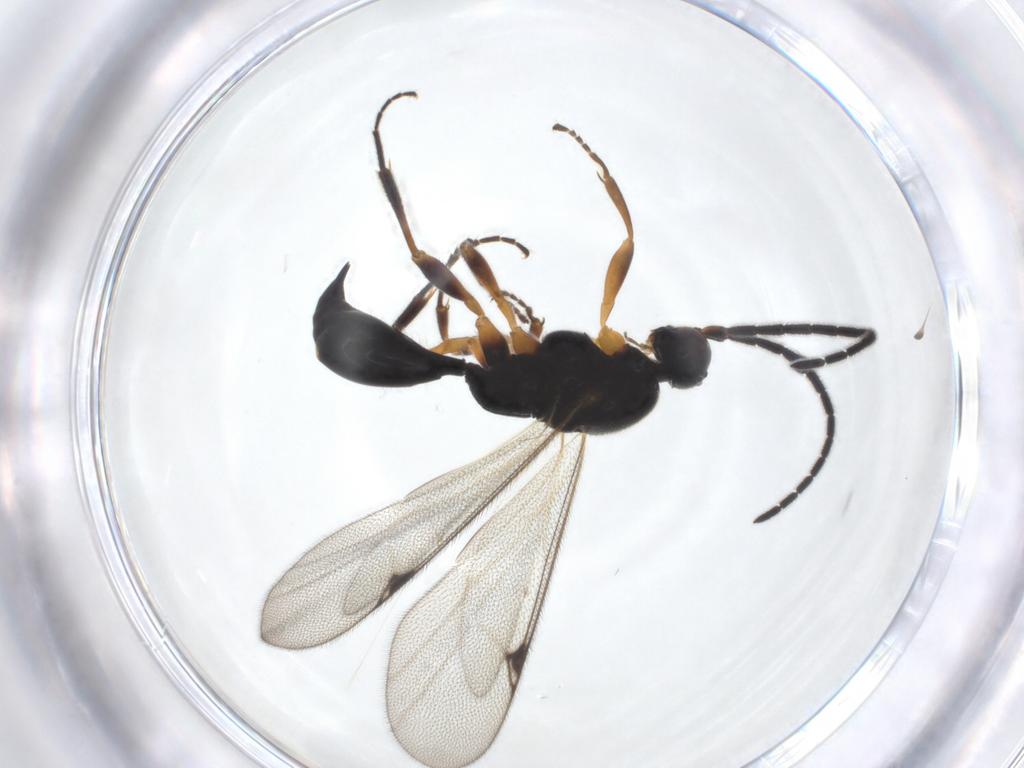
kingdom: Animalia
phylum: Arthropoda
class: Insecta
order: Hymenoptera
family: Proctotrupidae
